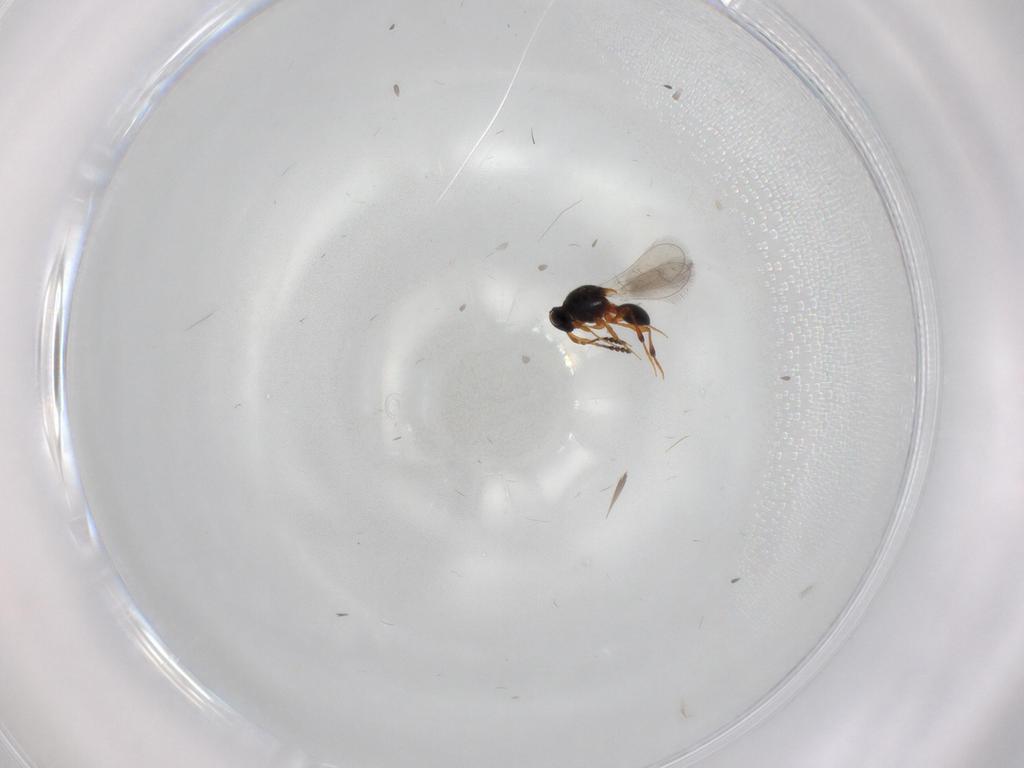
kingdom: Animalia
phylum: Arthropoda
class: Insecta
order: Hymenoptera
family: Platygastridae
